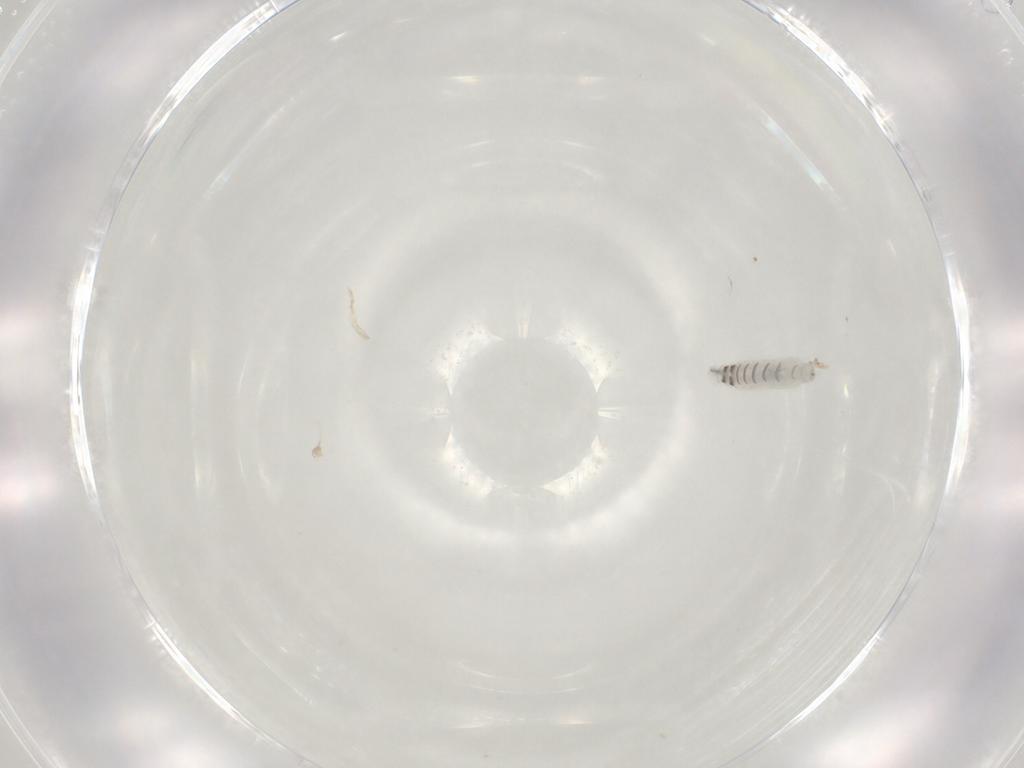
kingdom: Animalia
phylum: Arthropoda
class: Insecta
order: Diptera
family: Tachinidae
